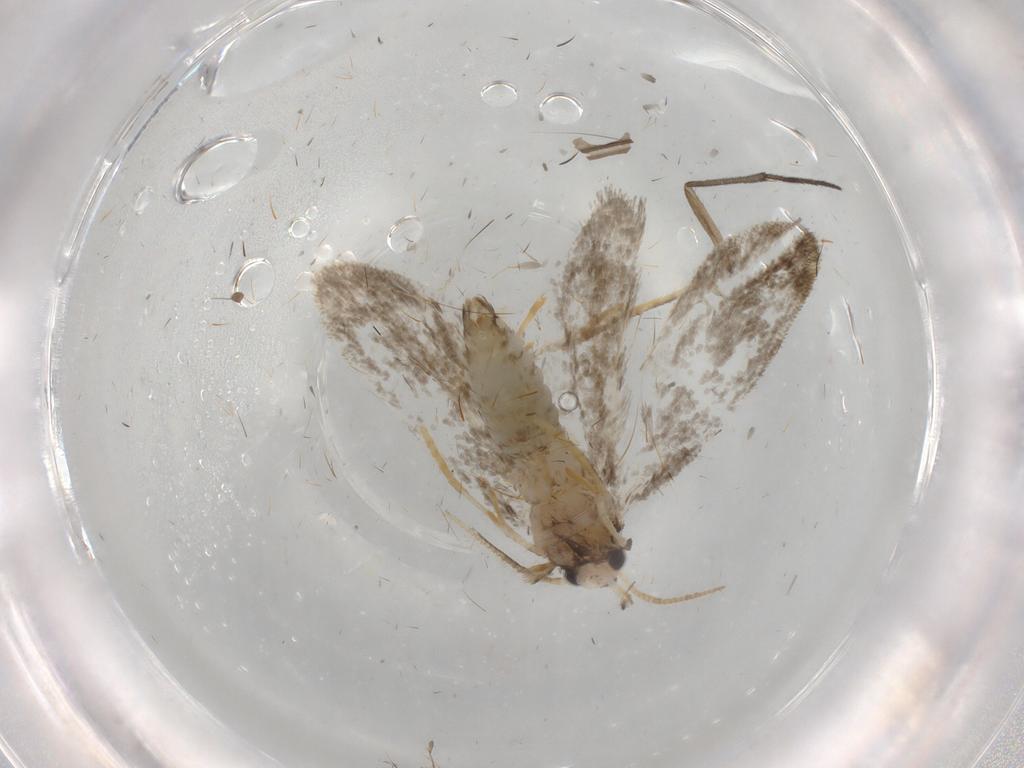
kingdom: Animalia
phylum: Arthropoda
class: Insecta
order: Lepidoptera
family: Psychidae
